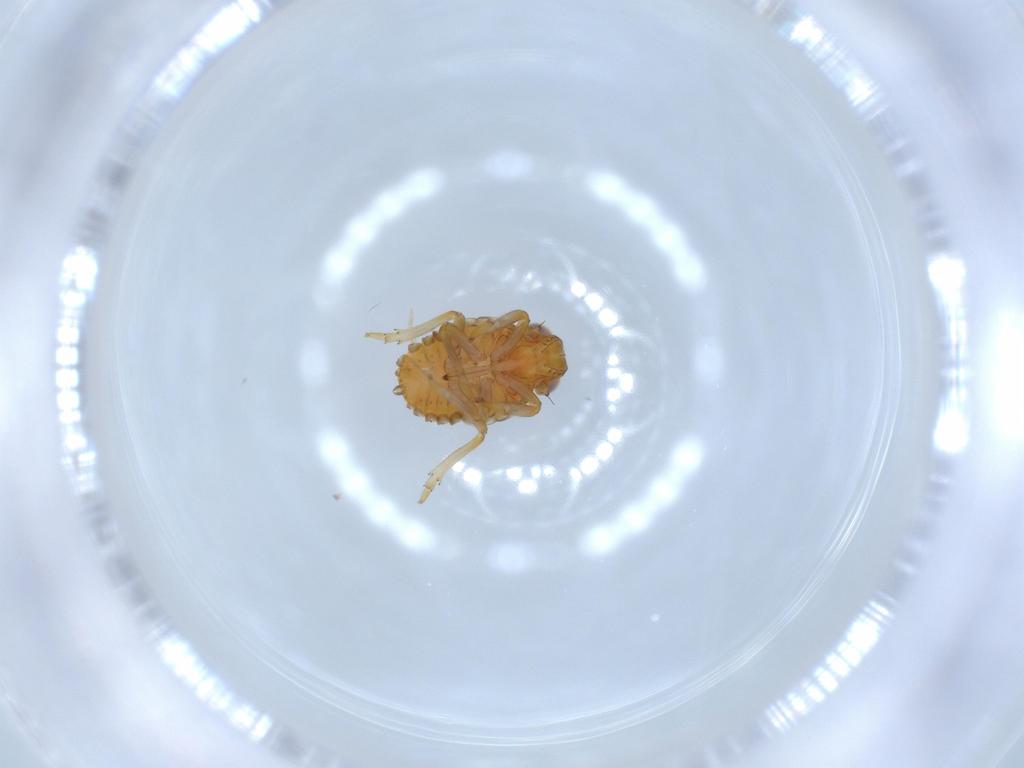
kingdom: Animalia
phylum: Arthropoda
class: Insecta
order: Hemiptera
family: Issidae
